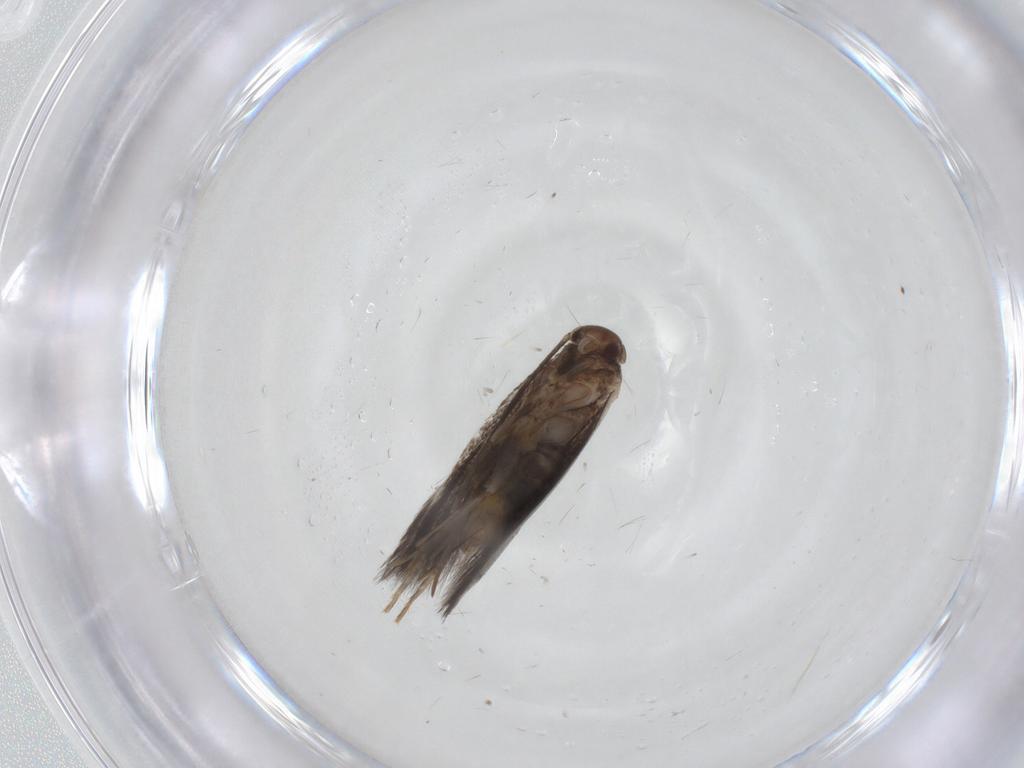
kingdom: Animalia
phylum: Arthropoda
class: Insecta
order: Lepidoptera
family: Elachistidae
